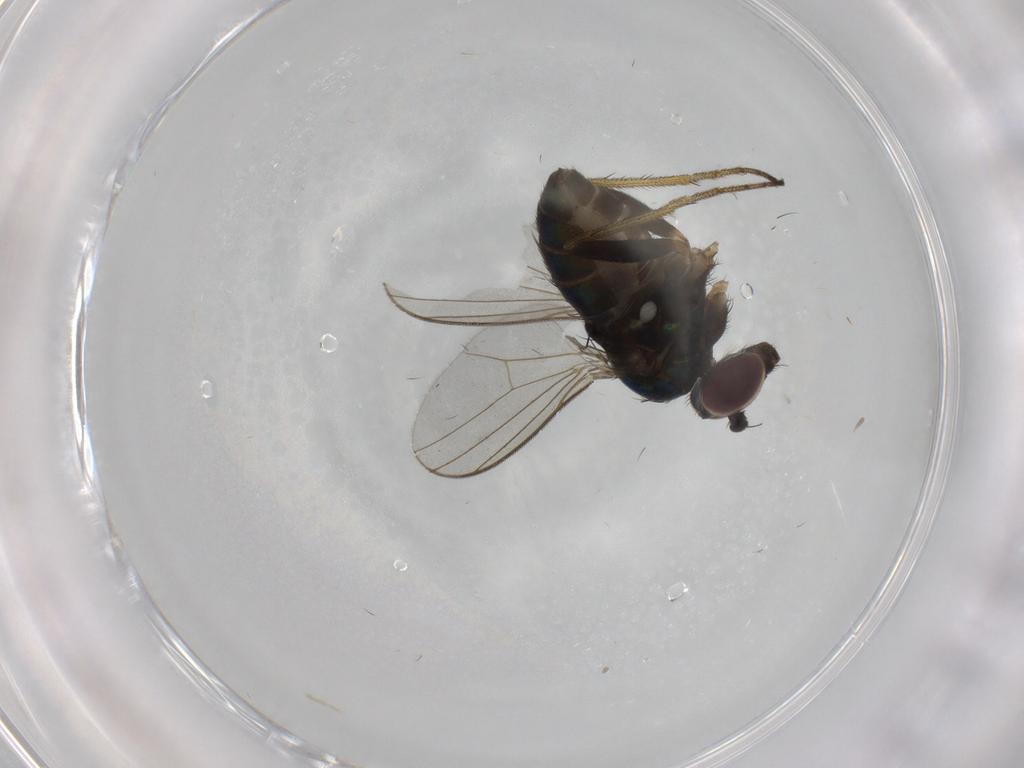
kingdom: Animalia
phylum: Arthropoda
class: Insecta
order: Diptera
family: Dolichopodidae
